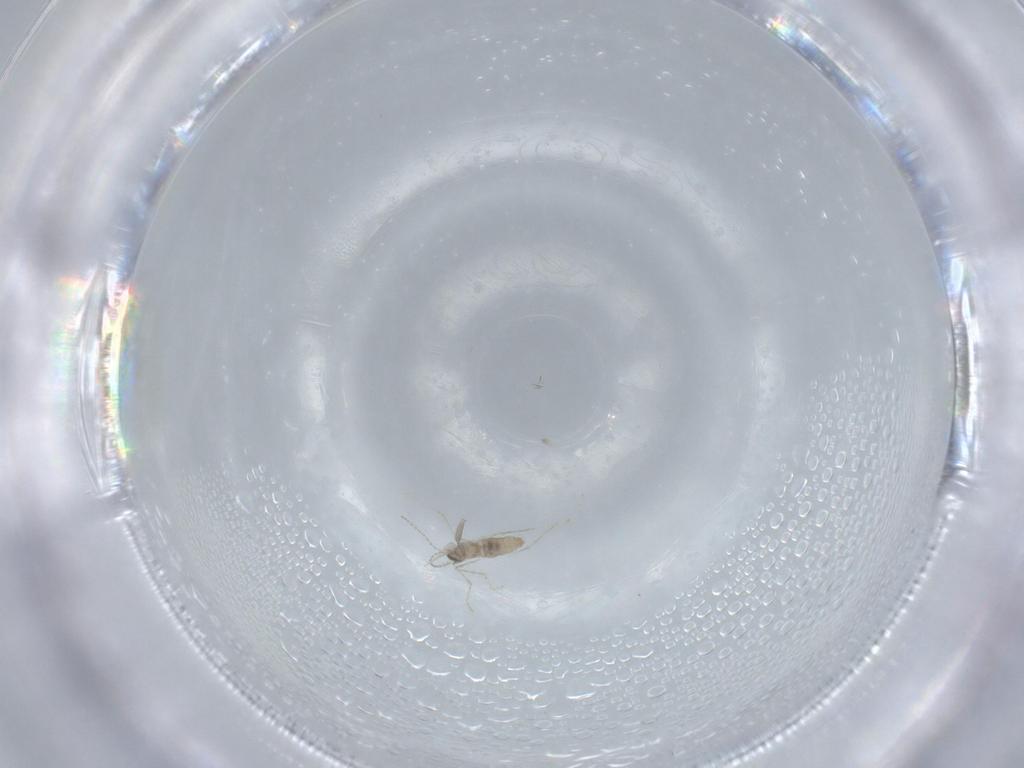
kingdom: Animalia
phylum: Arthropoda
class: Insecta
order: Diptera
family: Cecidomyiidae
